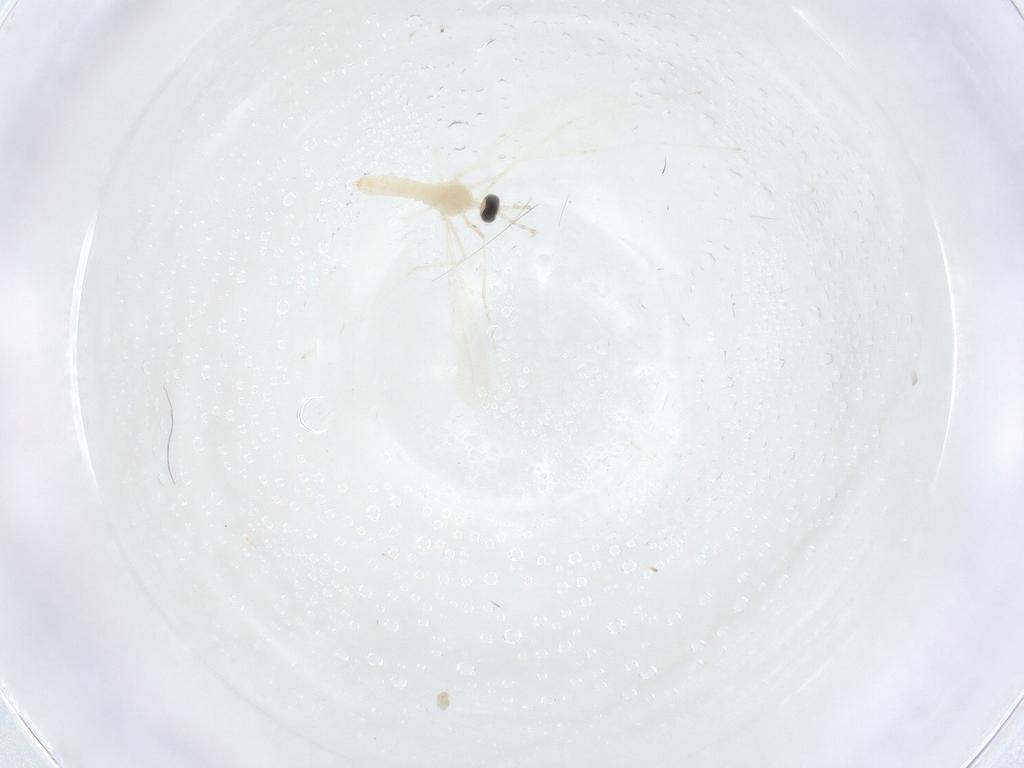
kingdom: Animalia
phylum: Arthropoda
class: Insecta
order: Diptera
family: Cecidomyiidae
